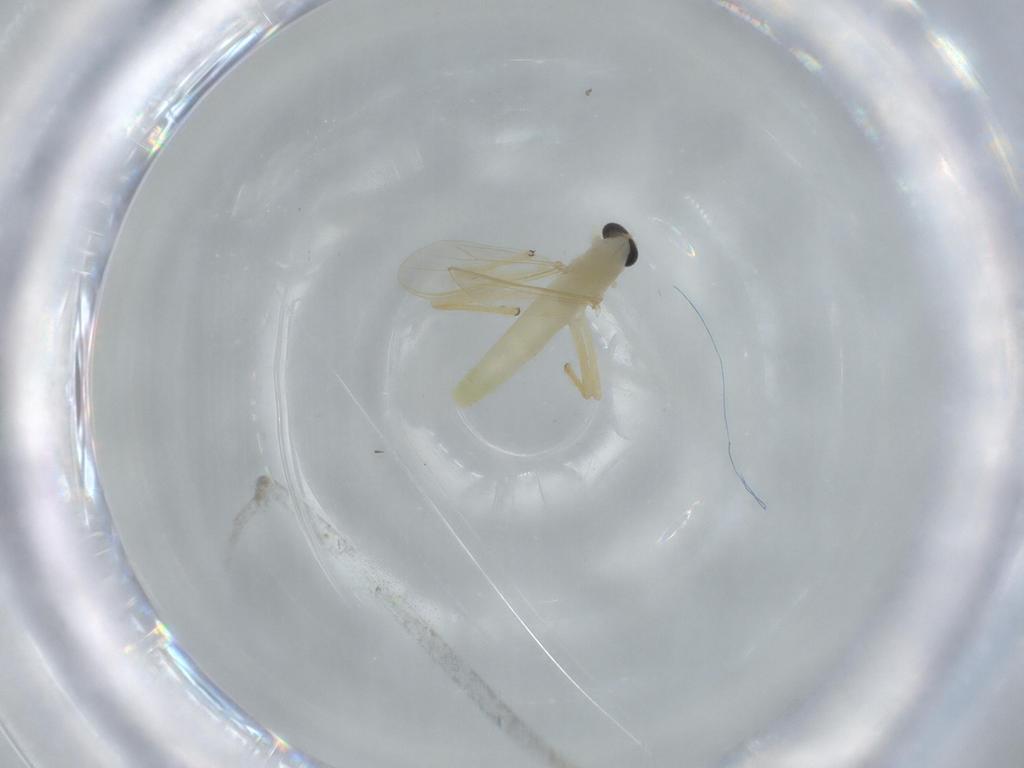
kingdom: Animalia
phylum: Arthropoda
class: Insecta
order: Diptera
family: Chironomidae
